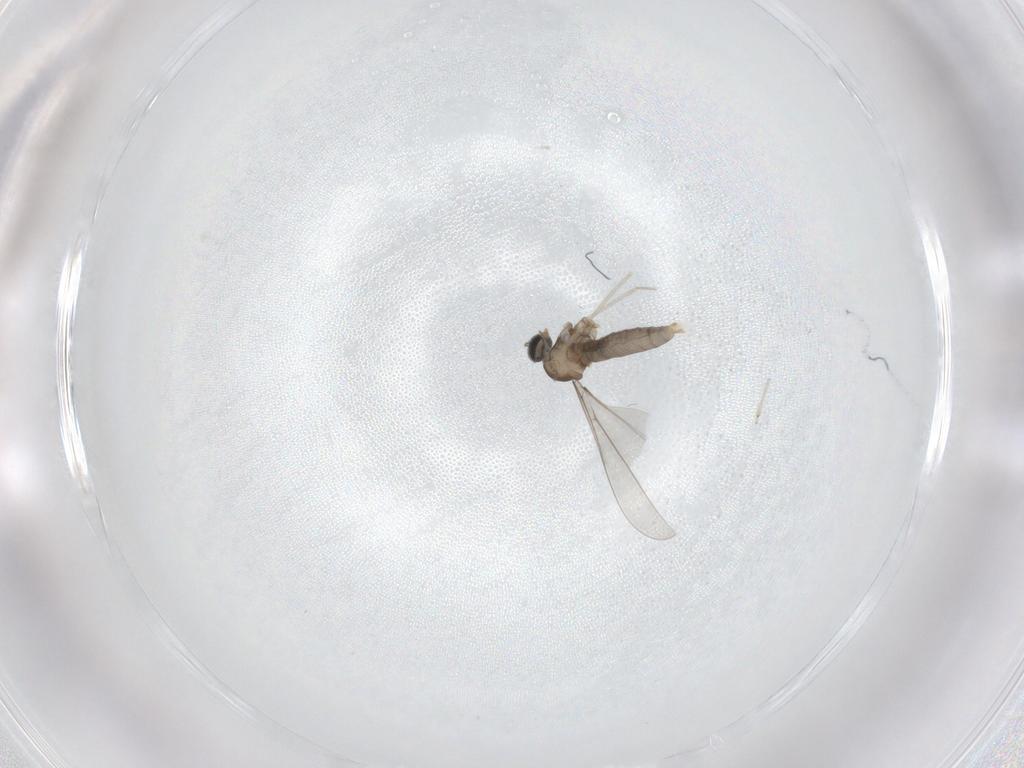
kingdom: Animalia
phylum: Arthropoda
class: Insecta
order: Diptera
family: Cecidomyiidae
